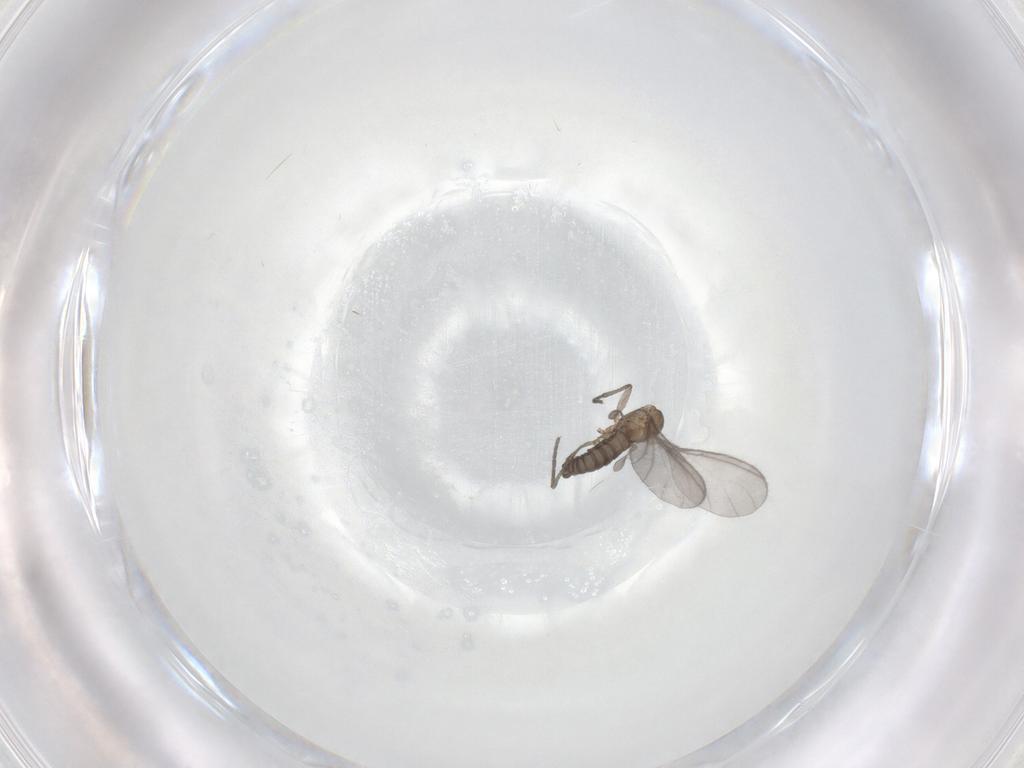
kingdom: Animalia
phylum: Arthropoda
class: Insecta
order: Diptera
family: Sciaridae
